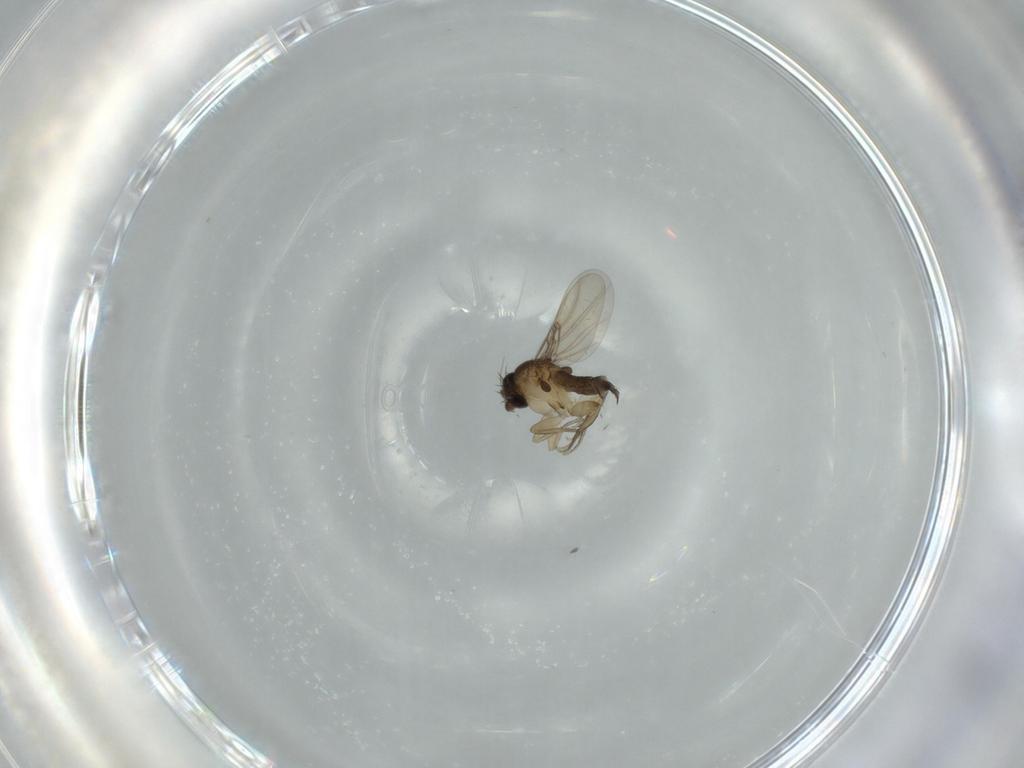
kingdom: Animalia
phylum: Arthropoda
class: Insecta
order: Diptera
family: Phoridae
